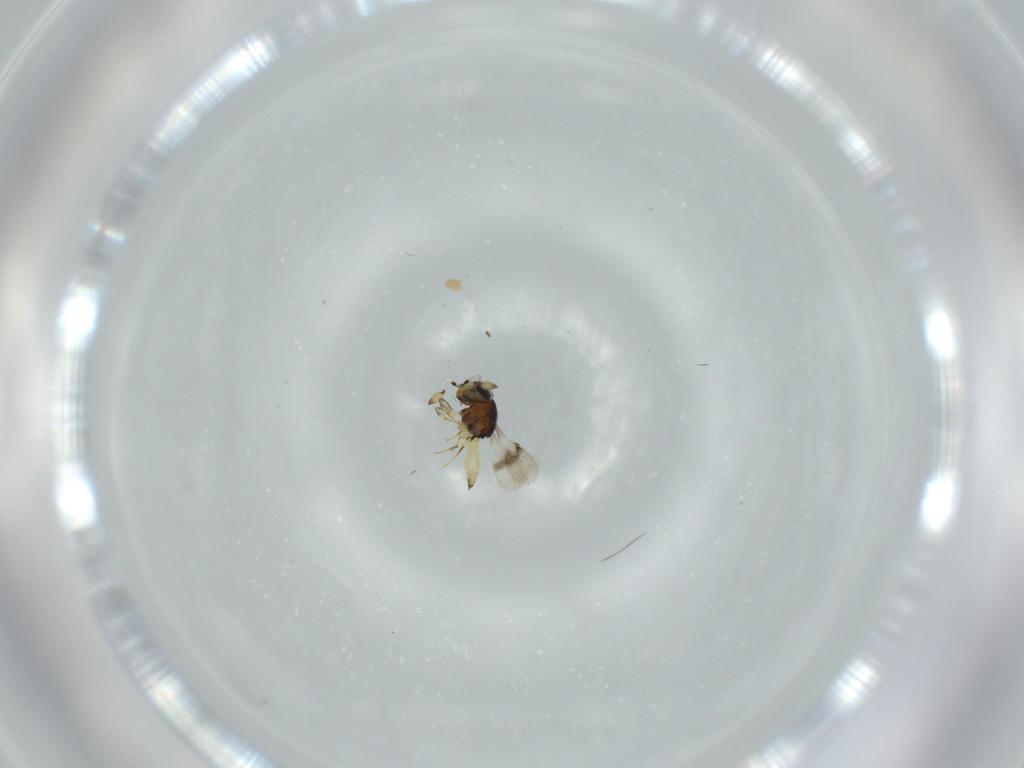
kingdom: Animalia
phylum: Arthropoda
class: Insecta
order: Hymenoptera
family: Scelionidae
